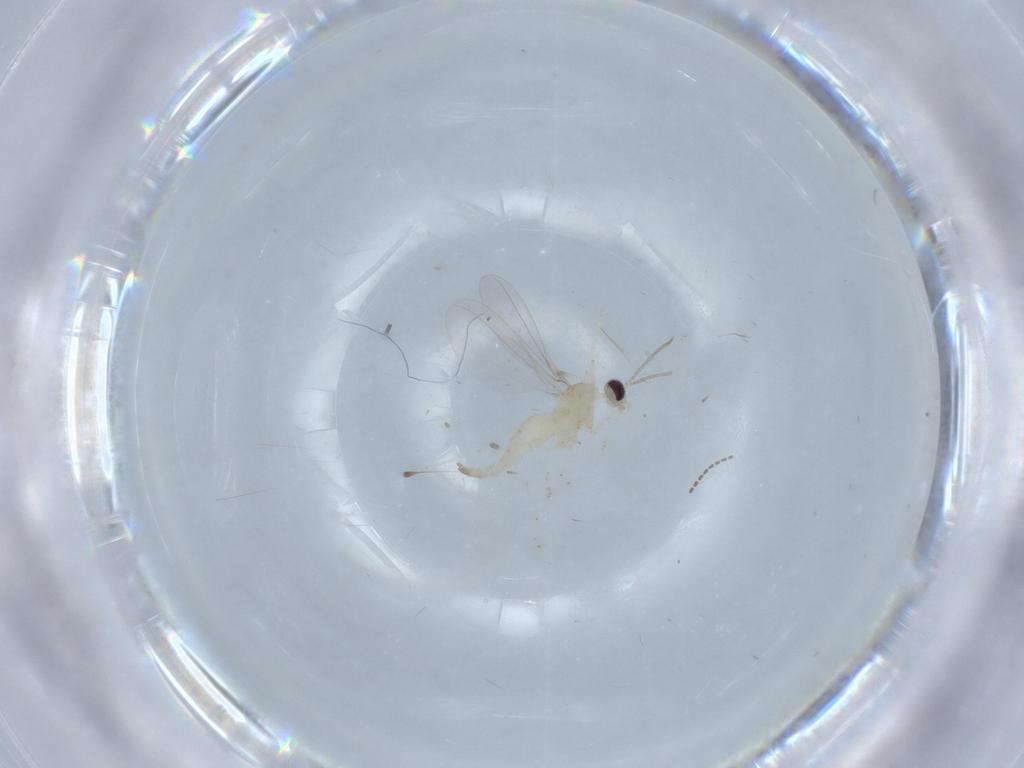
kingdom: Animalia
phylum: Arthropoda
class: Insecta
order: Diptera
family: Cecidomyiidae
